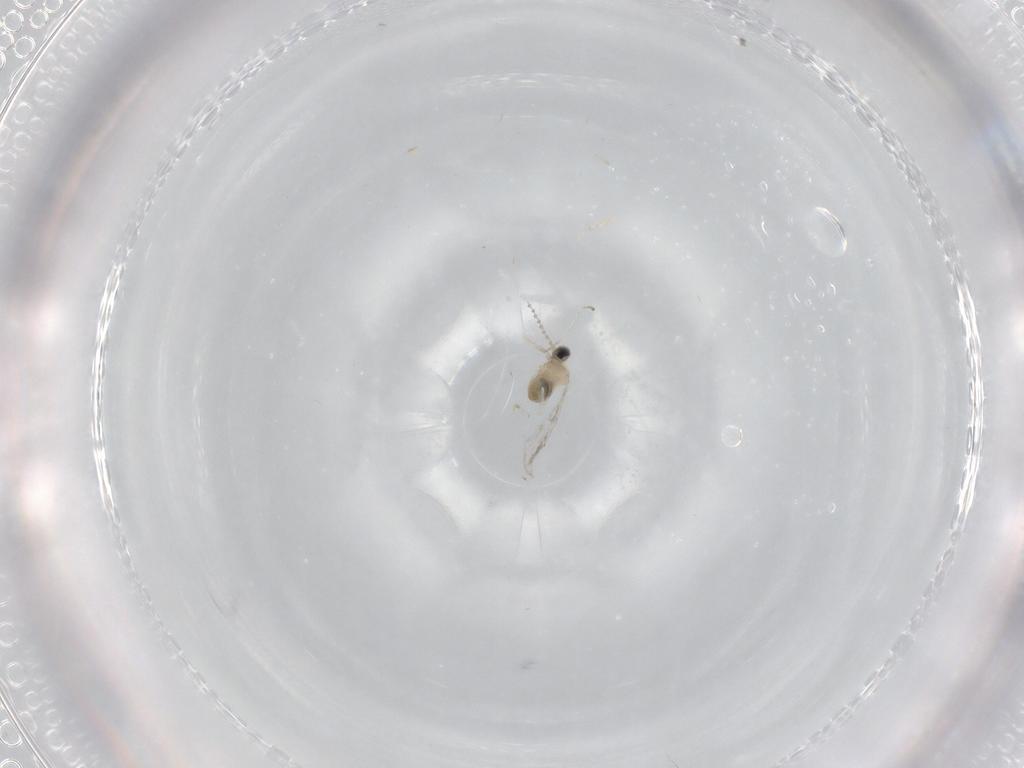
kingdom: Animalia
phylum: Arthropoda
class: Insecta
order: Diptera
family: Cecidomyiidae
